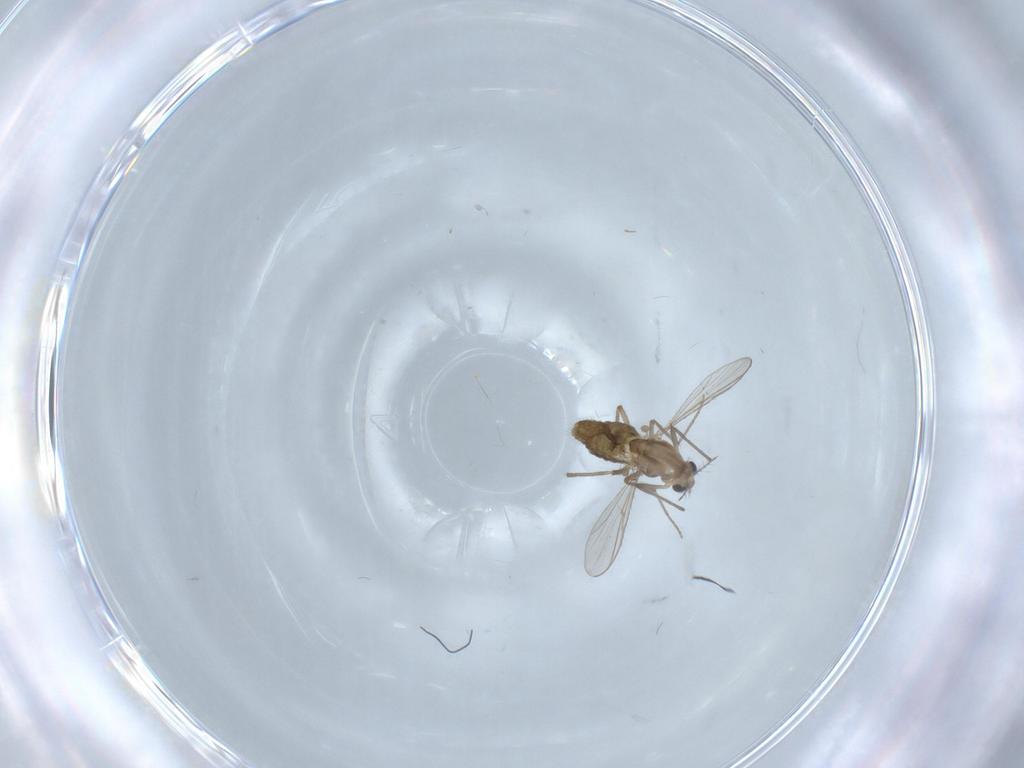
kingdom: Animalia
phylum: Arthropoda
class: Insecta
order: Diptera
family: Chironomidae
